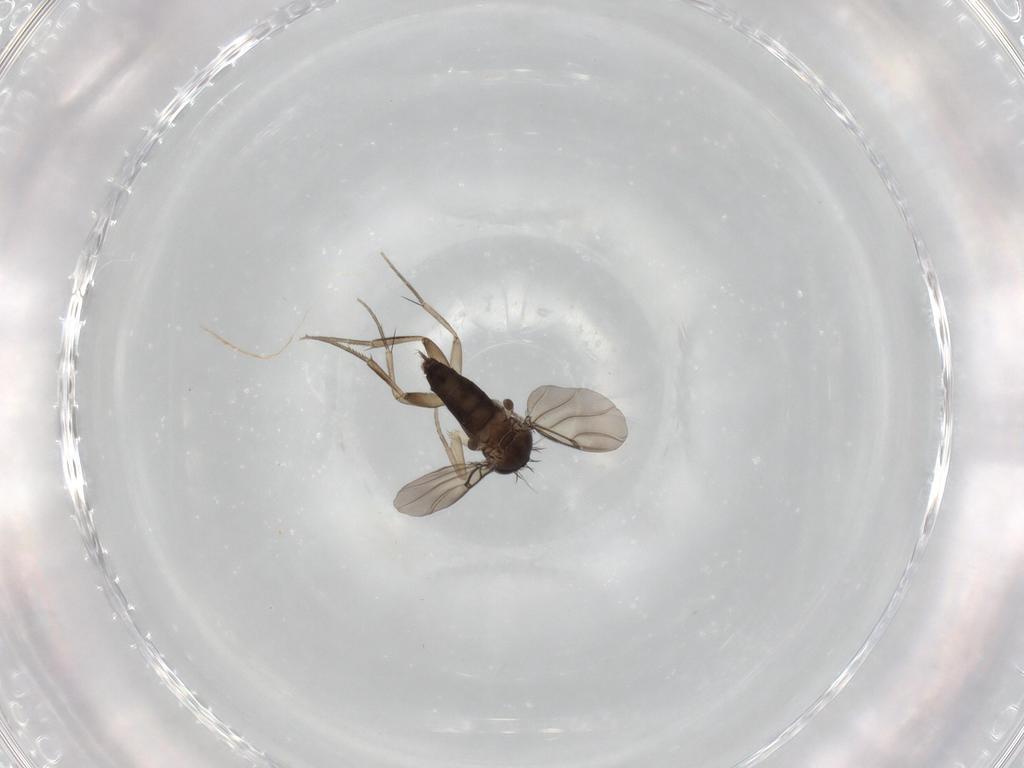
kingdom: Animalia
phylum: Arthropoda
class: Insecta
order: Diptera
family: Phoridae
